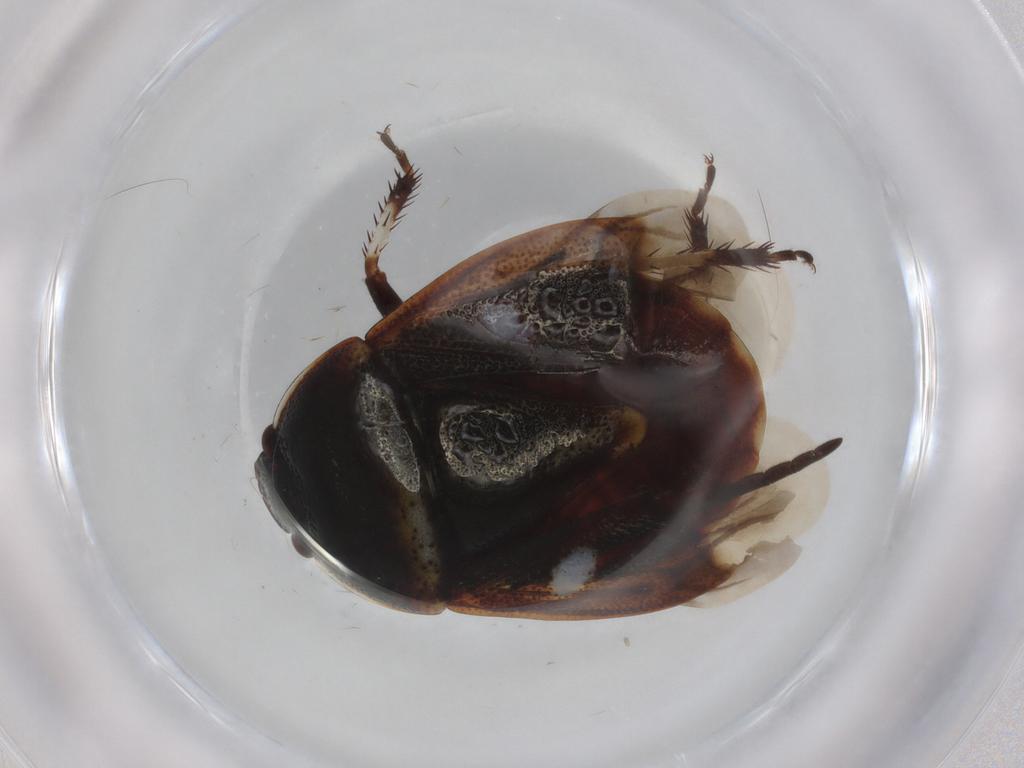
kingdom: Animalia
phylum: Arthropoda
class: Insecta
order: Hemiptera
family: Cydnidae
